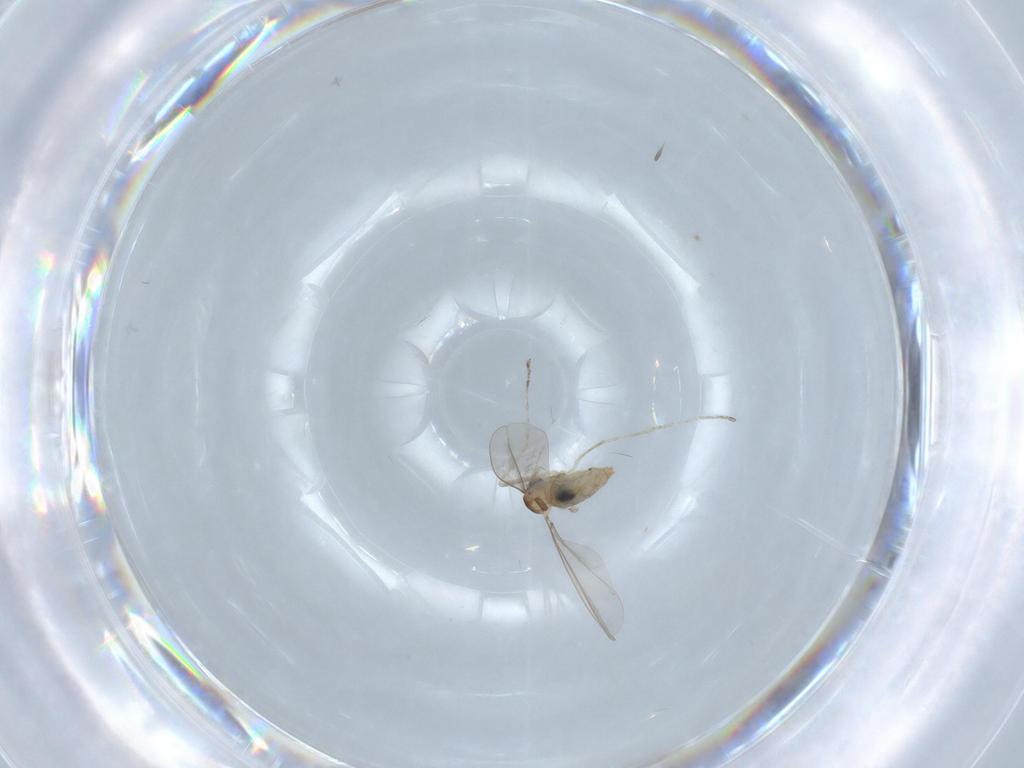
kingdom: Animalia
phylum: Arthropoda
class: Insecta
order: Diptera
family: Cecidomyiidae
